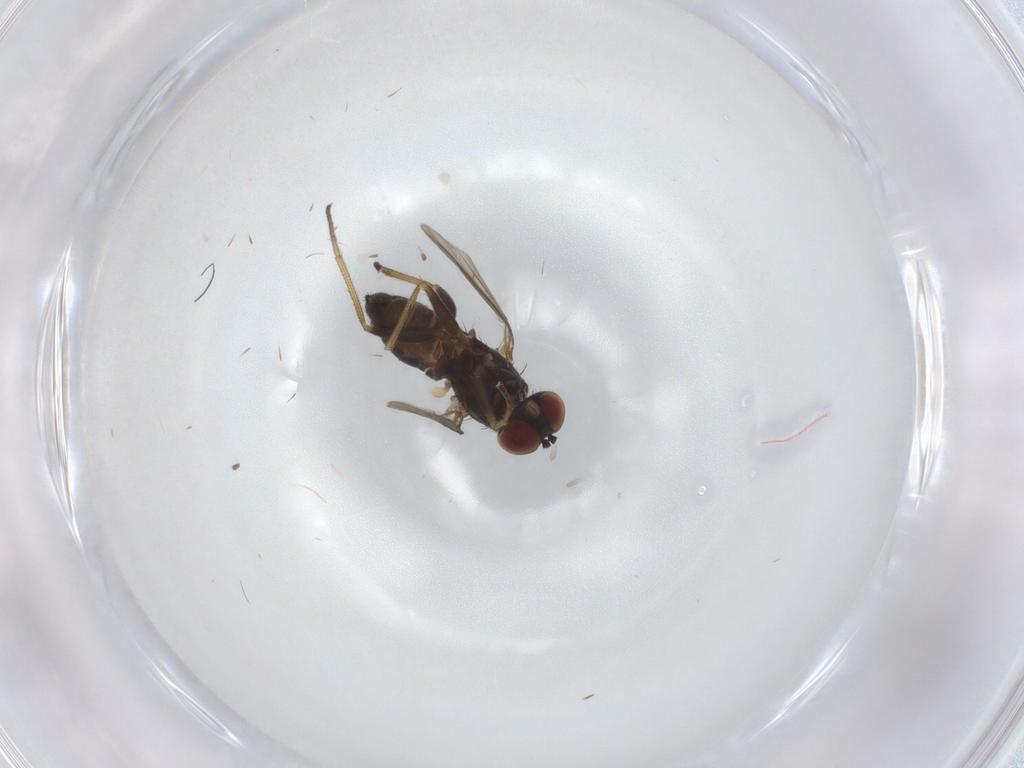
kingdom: Animalia
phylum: Arthropoda
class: Insecta
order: Diptera
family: Dolichopodidae
